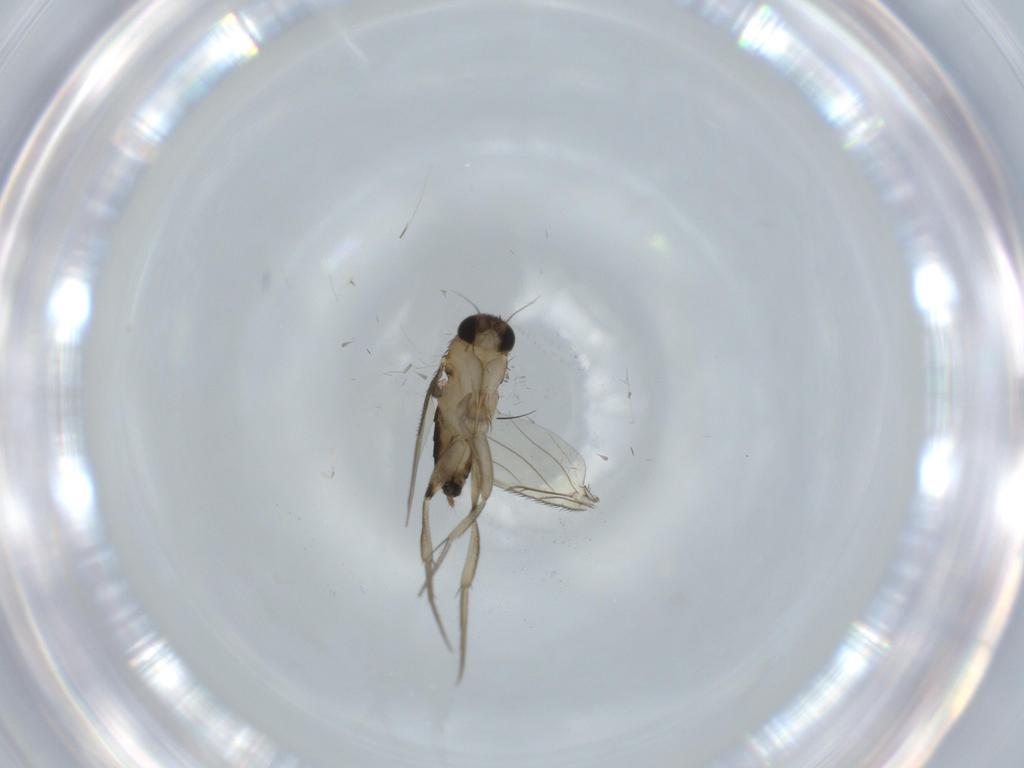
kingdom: Animalia
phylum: Arthropoda
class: Insecta
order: Diptera
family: Phoridae
